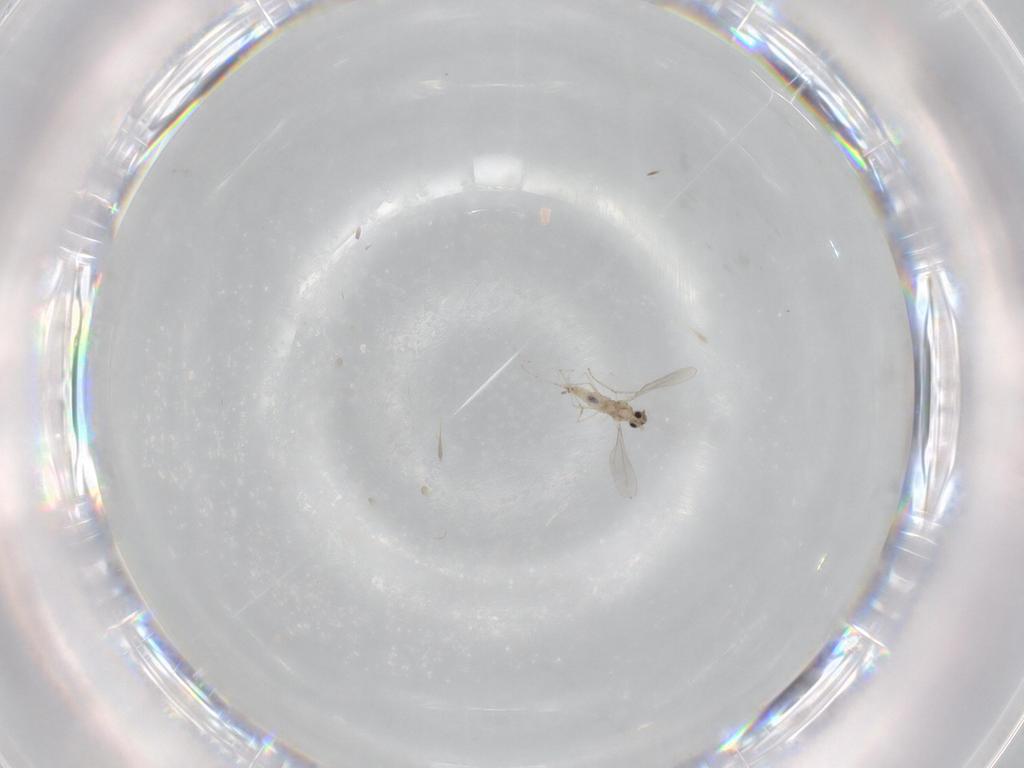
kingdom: Animalia
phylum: Arthropoda
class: Insecta
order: Diptera
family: Cecidomyiidae
